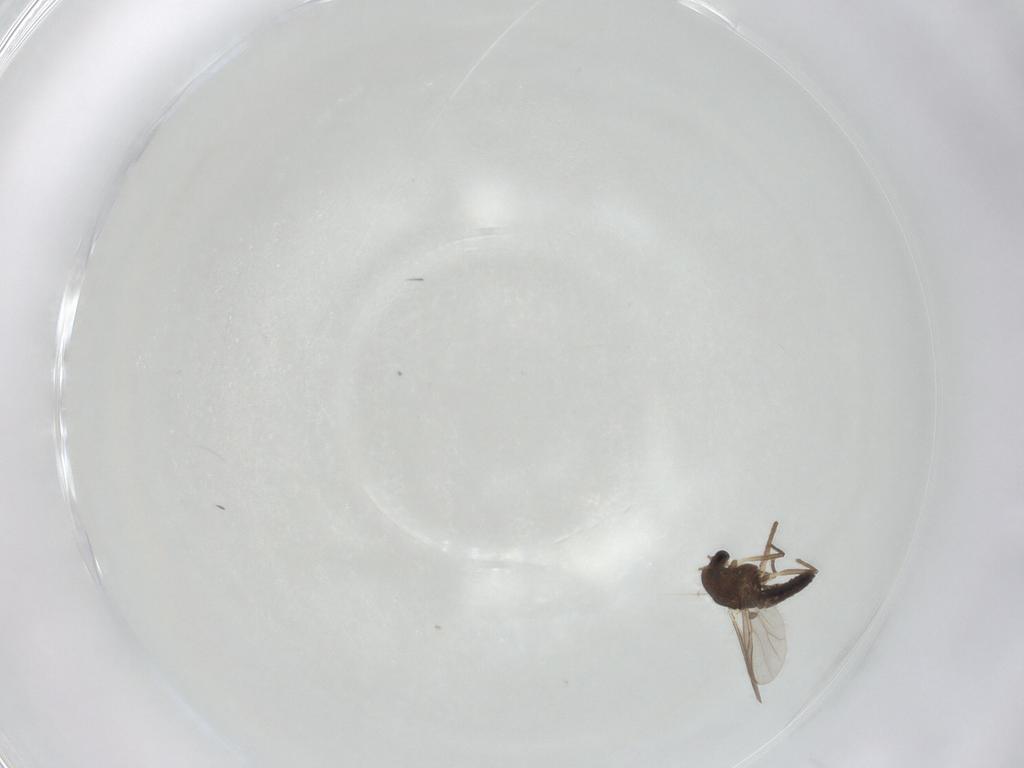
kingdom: Animalia
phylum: Arthropoda
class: Insecta
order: Diptera
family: Chironomidae
